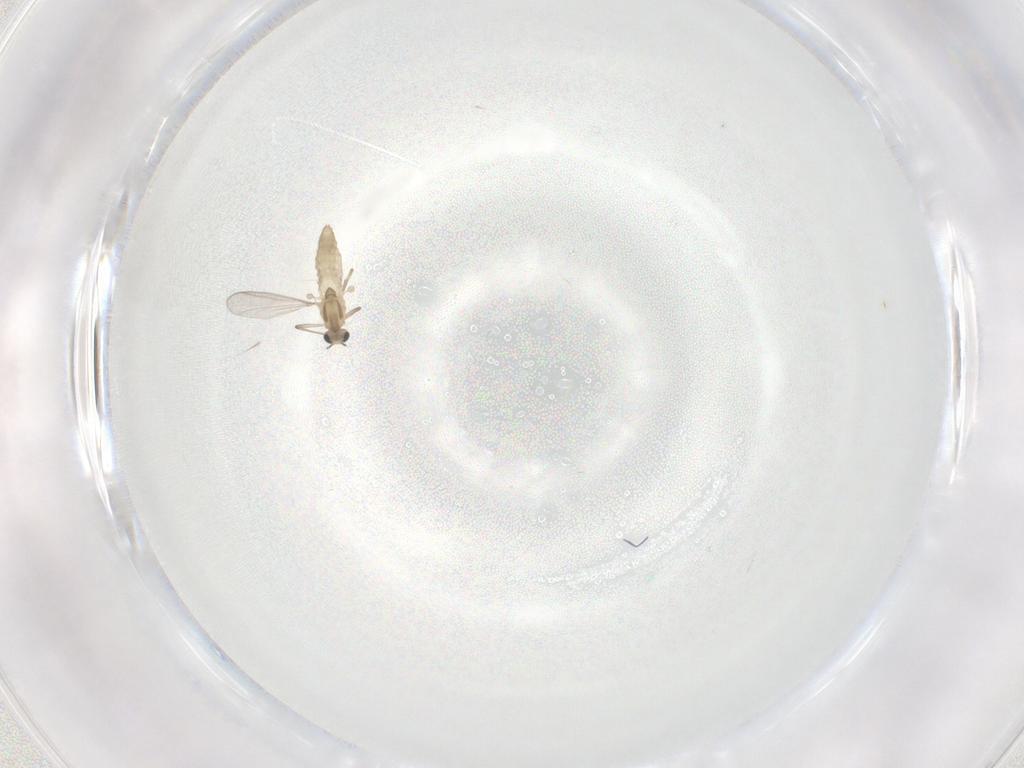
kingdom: Animalia
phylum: Arthropoda
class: Insecta
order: Diptera
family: Chironomidae
